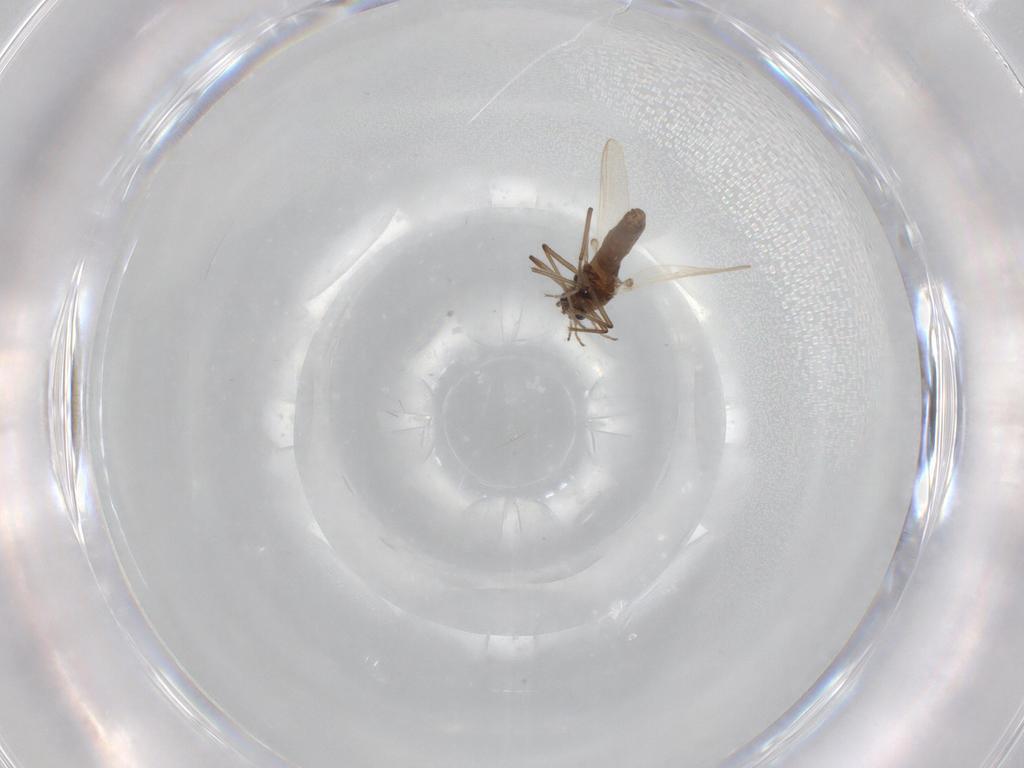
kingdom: Animalia
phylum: Arthropoda
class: Insecta
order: Diptera
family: Chironomidae
